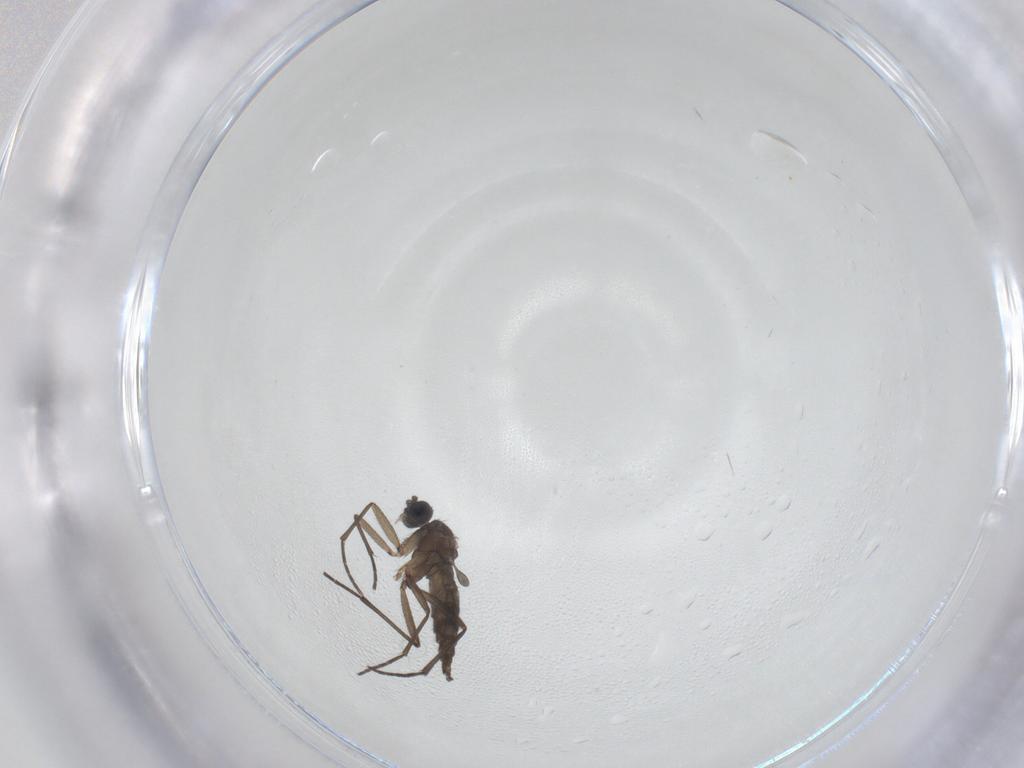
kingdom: Animalia
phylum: Arthropoda
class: Insecta
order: Diptera
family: Sciaridae
